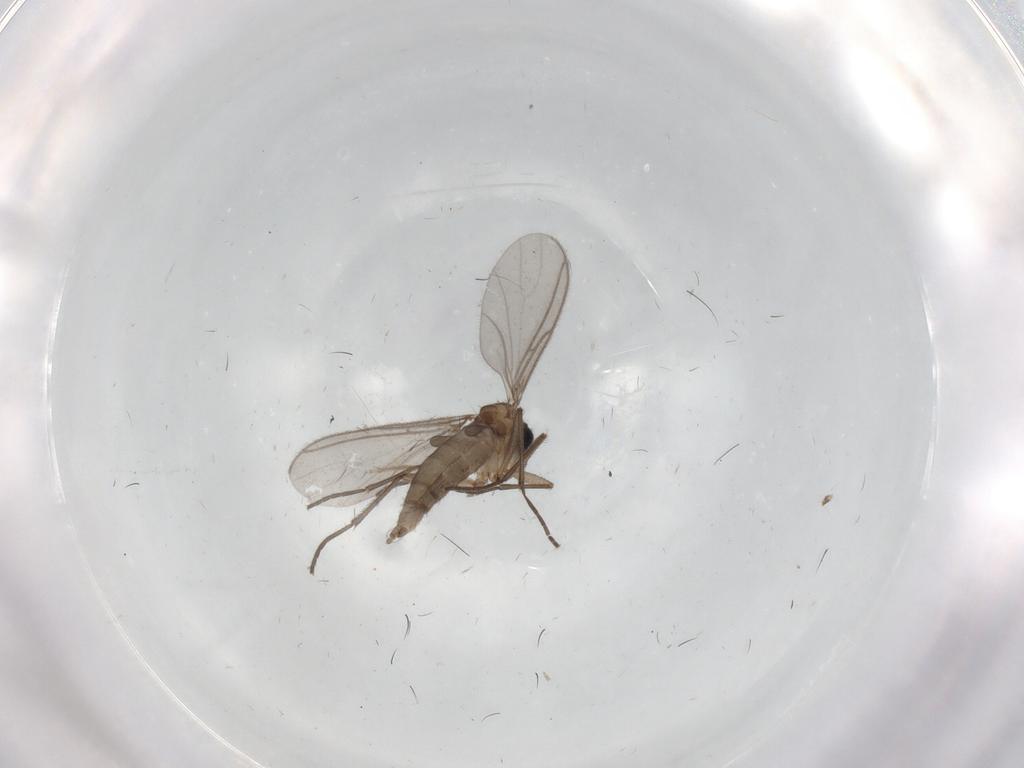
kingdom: Animalia
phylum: Arthropoda
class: Insecta
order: Diptera
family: Sciaridae
